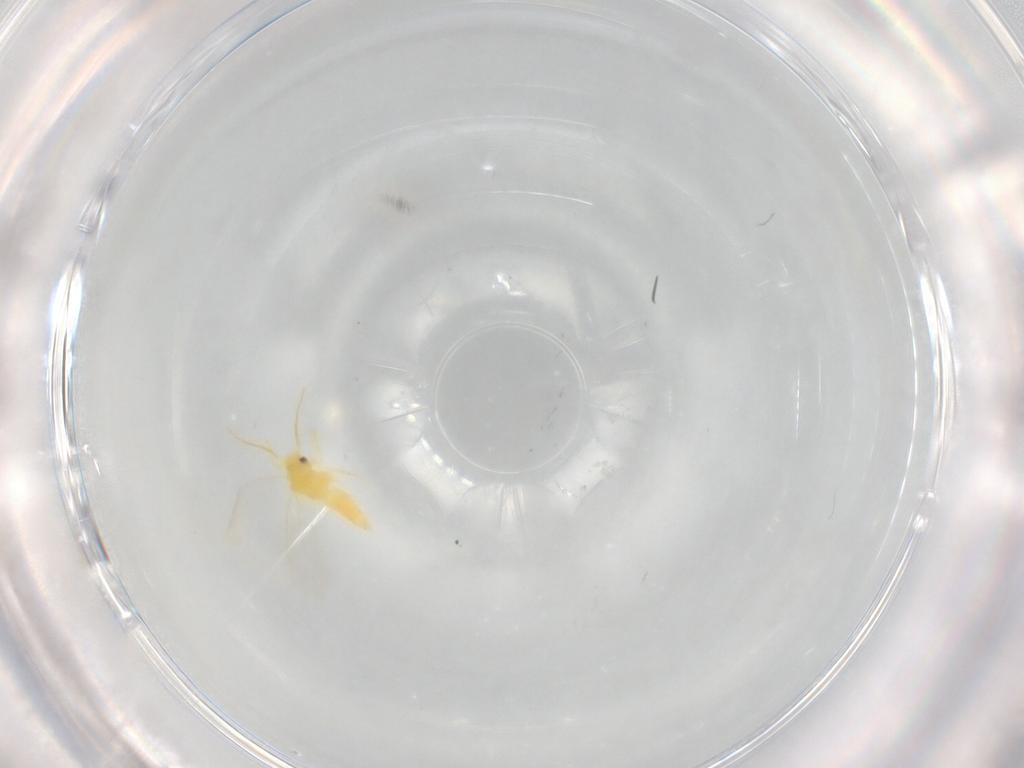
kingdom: Animalia
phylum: Arthropoda
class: Insecta
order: Hemiptera
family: Aleyrodidae
